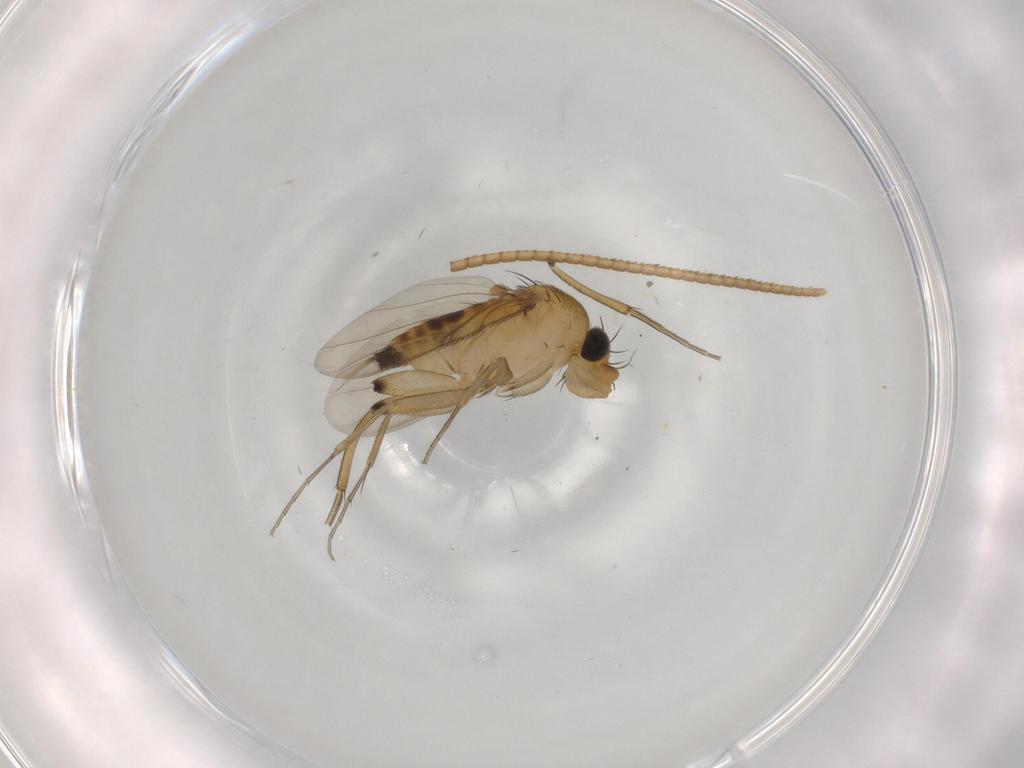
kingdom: Animalia
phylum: Arthropoda
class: Insecta
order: Diptera
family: Phoridae
